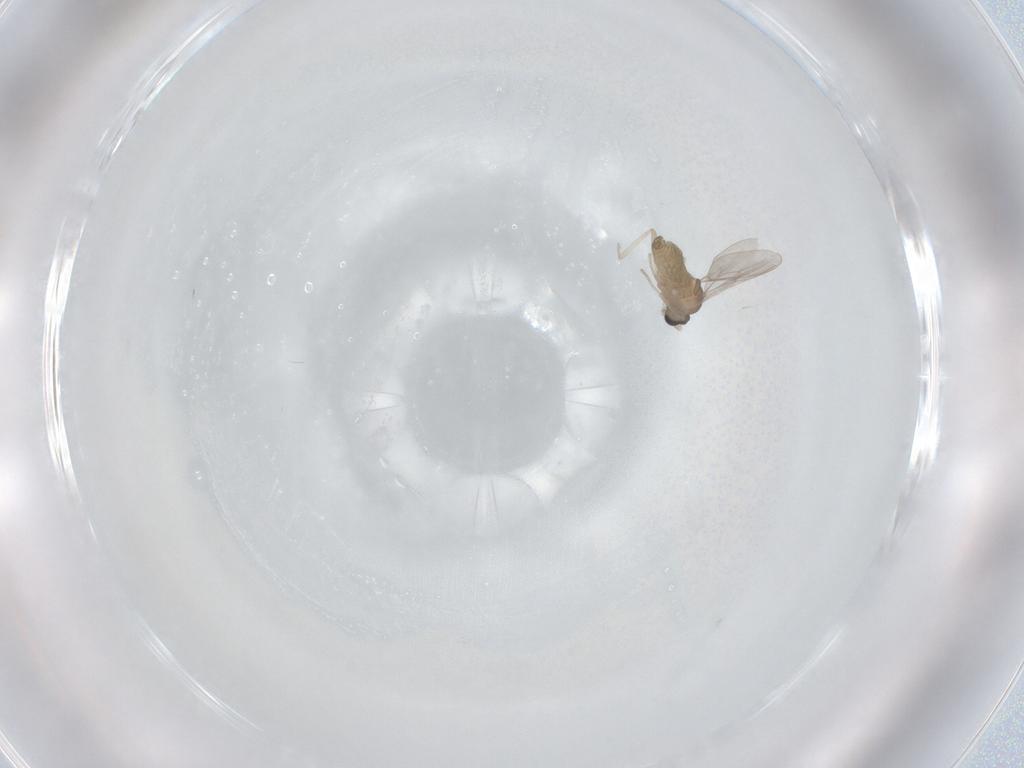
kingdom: Animalia
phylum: Arthropoda
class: Insecta
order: Diptera
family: Cecidomyiidae
